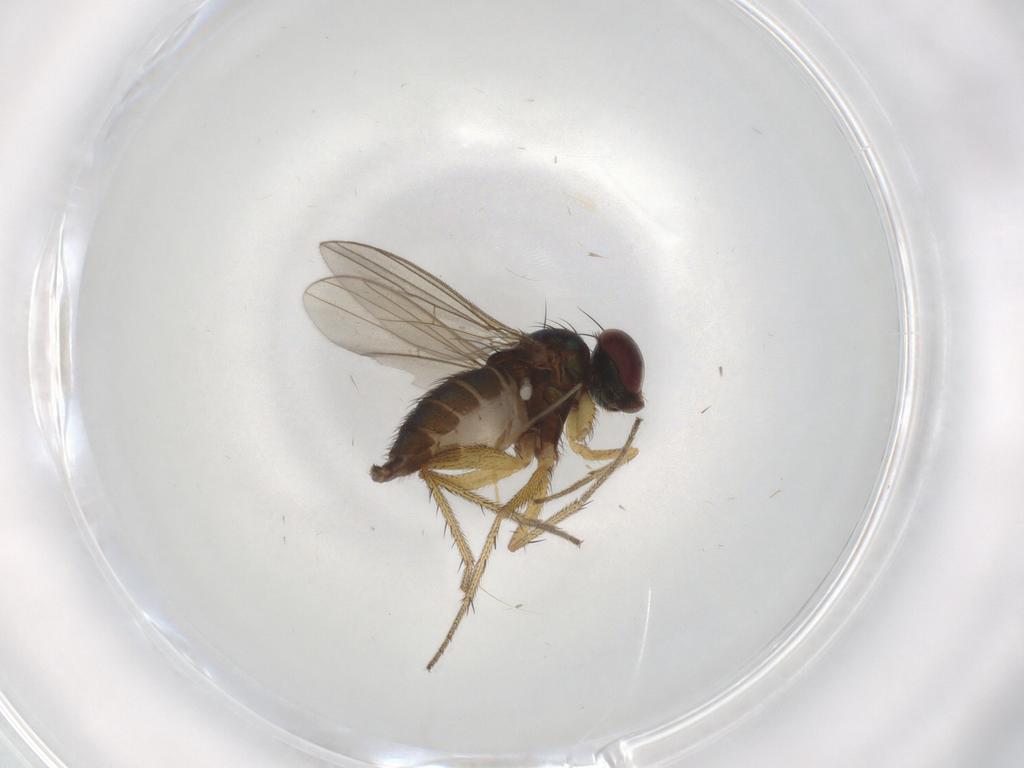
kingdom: Animalia
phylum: Arthropoda
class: Insecta
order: Diptera
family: Dolichopodidae
